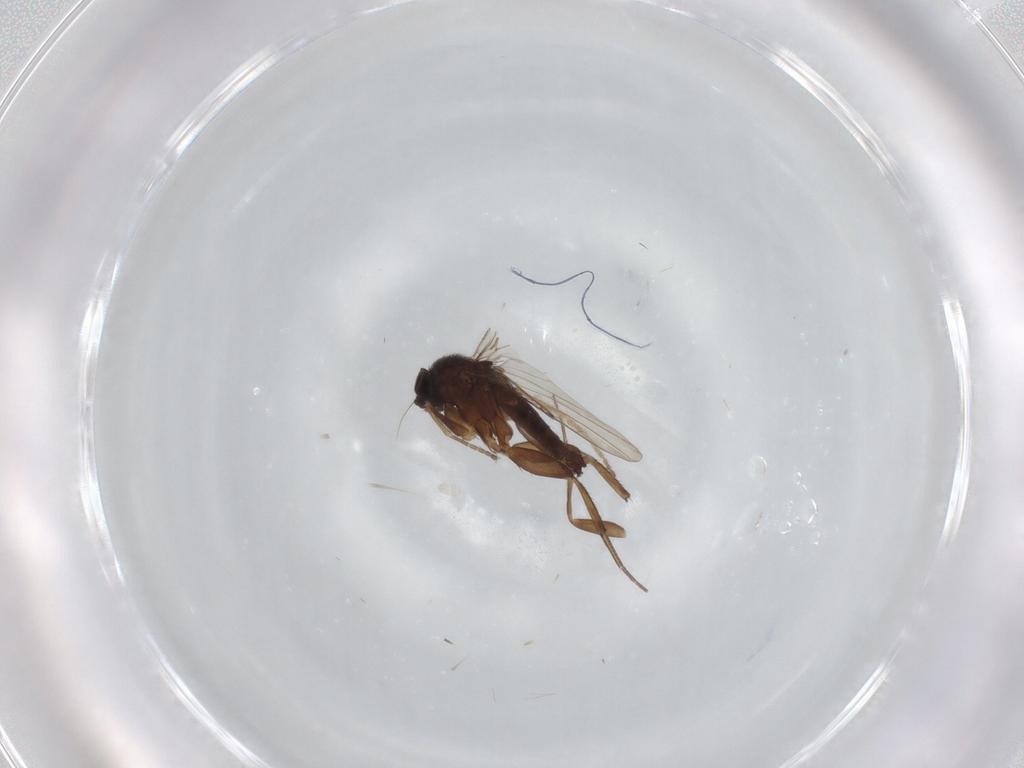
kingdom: Animalia
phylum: Arthropoda
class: Insecta
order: Diptera
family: Phoridae
